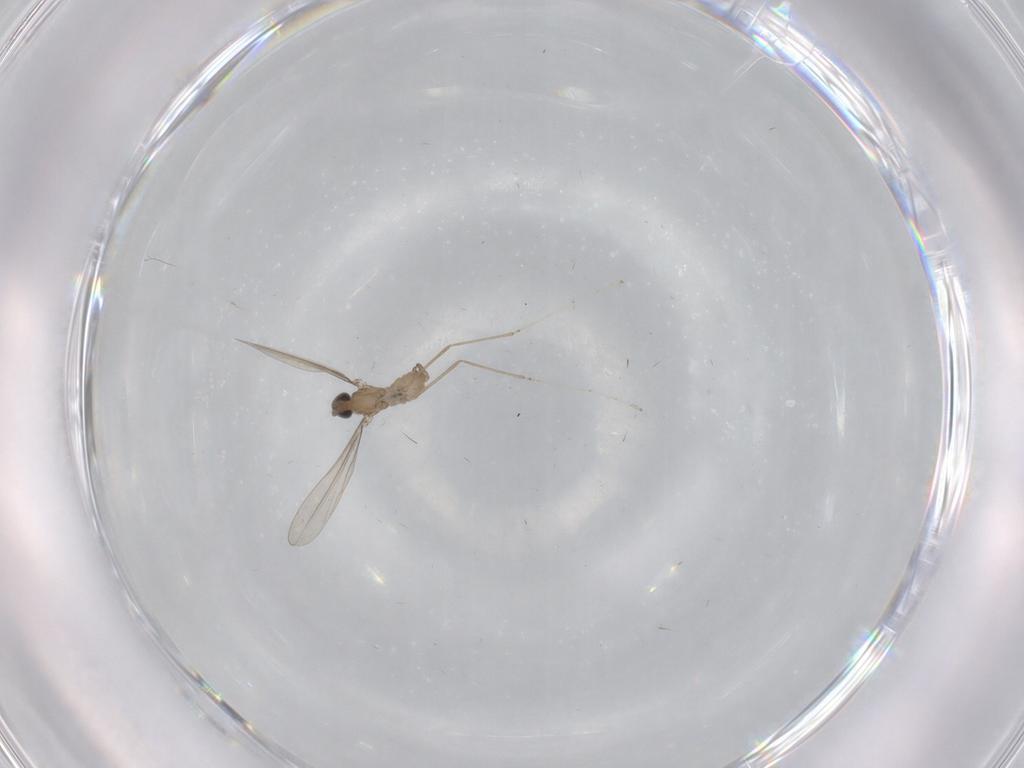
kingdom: Animalia
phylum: Arthropoda
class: Insecta
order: Diptera
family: Cecidomyiidae
